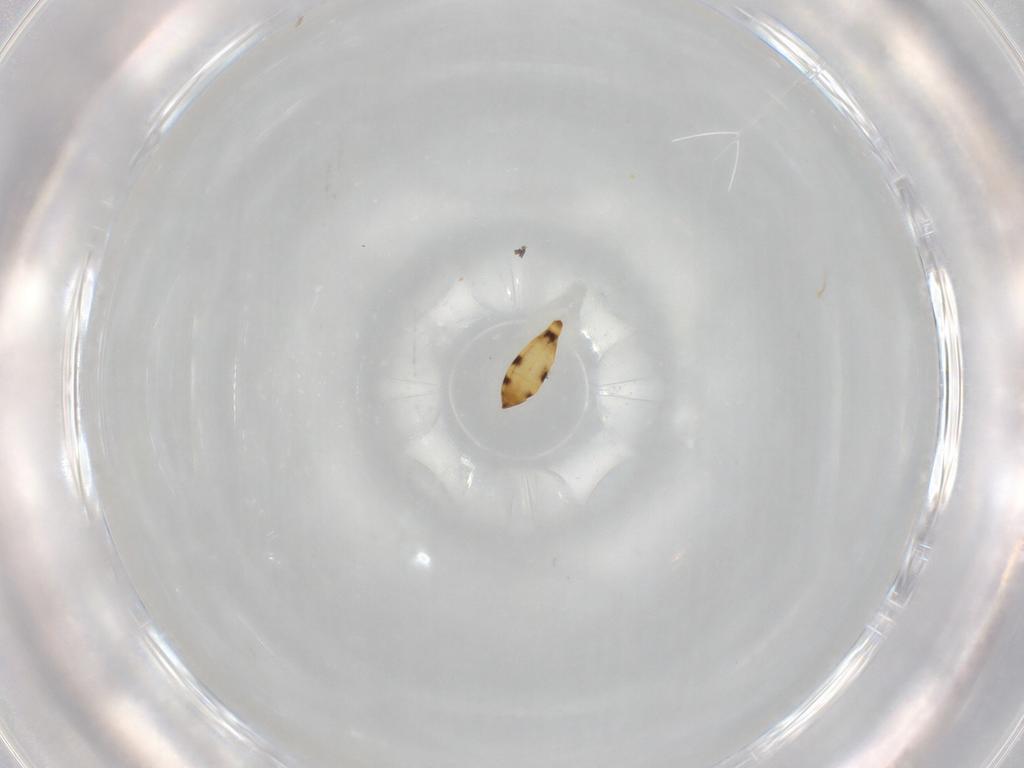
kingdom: Animalia
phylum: Arthropoda
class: Insecta
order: Hymenoptera
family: Scelionidae
